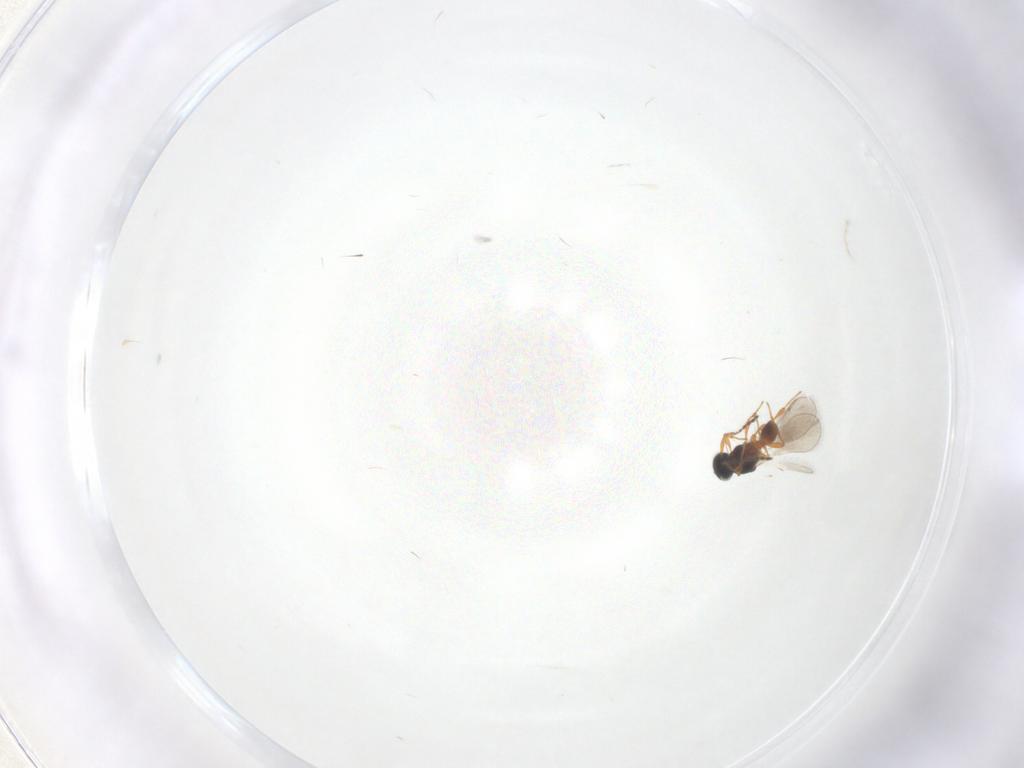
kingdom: Animalia
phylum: Arthropoda
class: Insecta
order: Hymenoptera
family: Platygastridae
